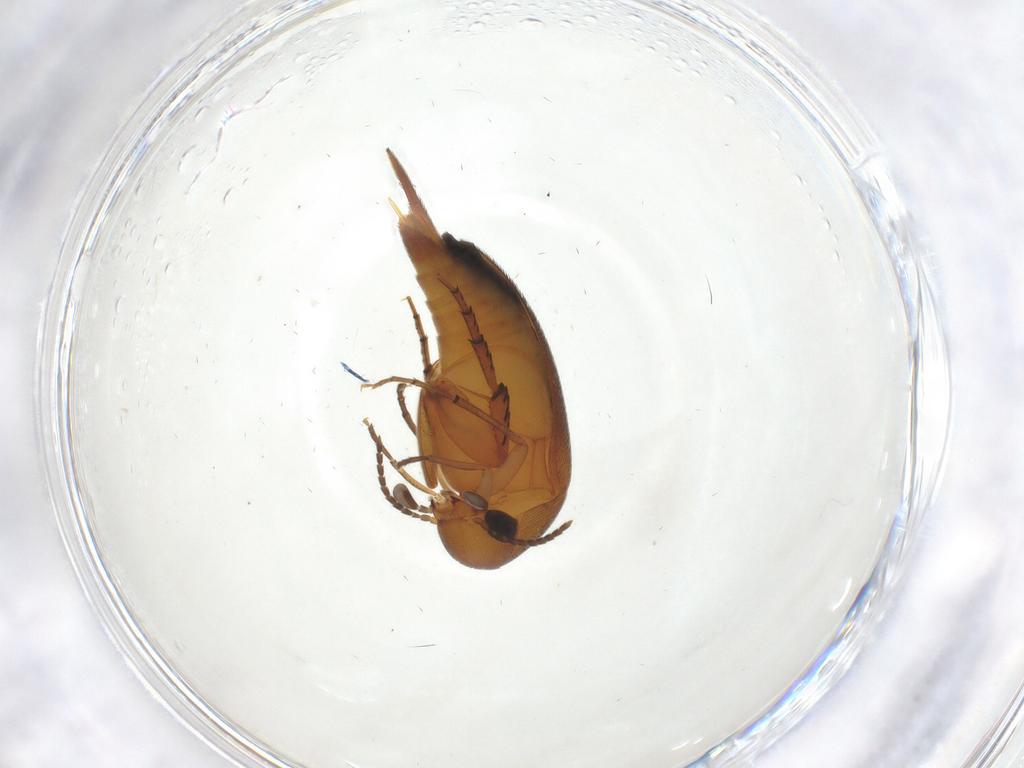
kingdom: Animalia
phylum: Arthropoda
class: Insecta
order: Coleoptera
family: Mordellidae
